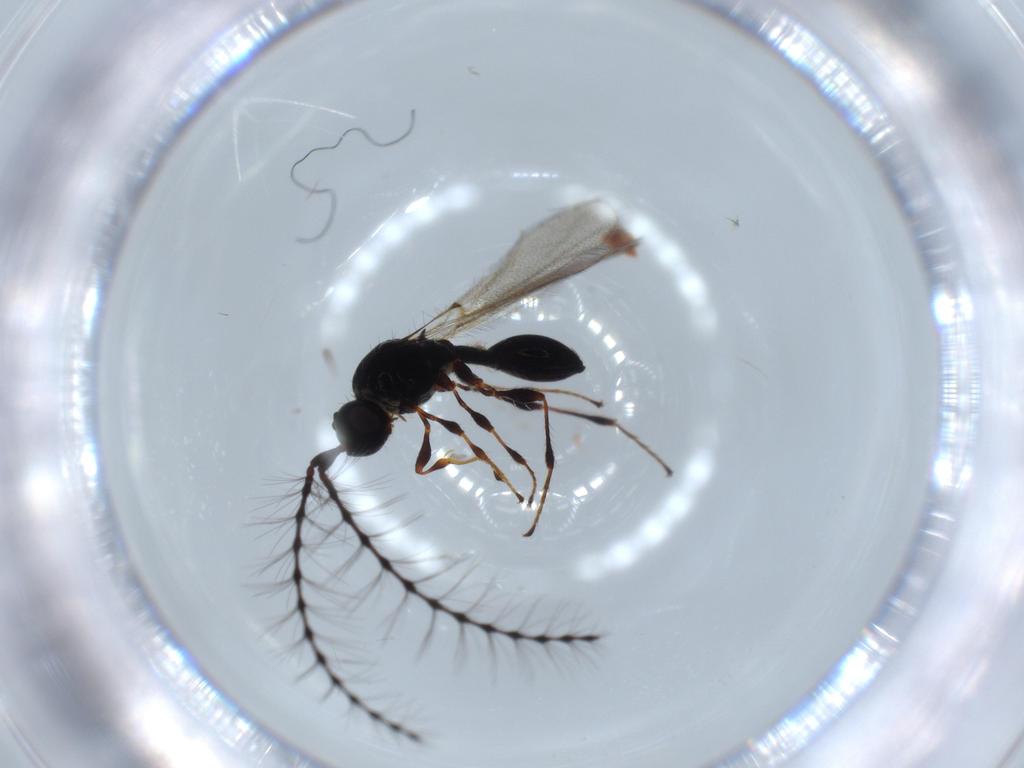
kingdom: Animalia
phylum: Arthropoda
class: Insecta
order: Hymenoptera
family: Diapriidae
